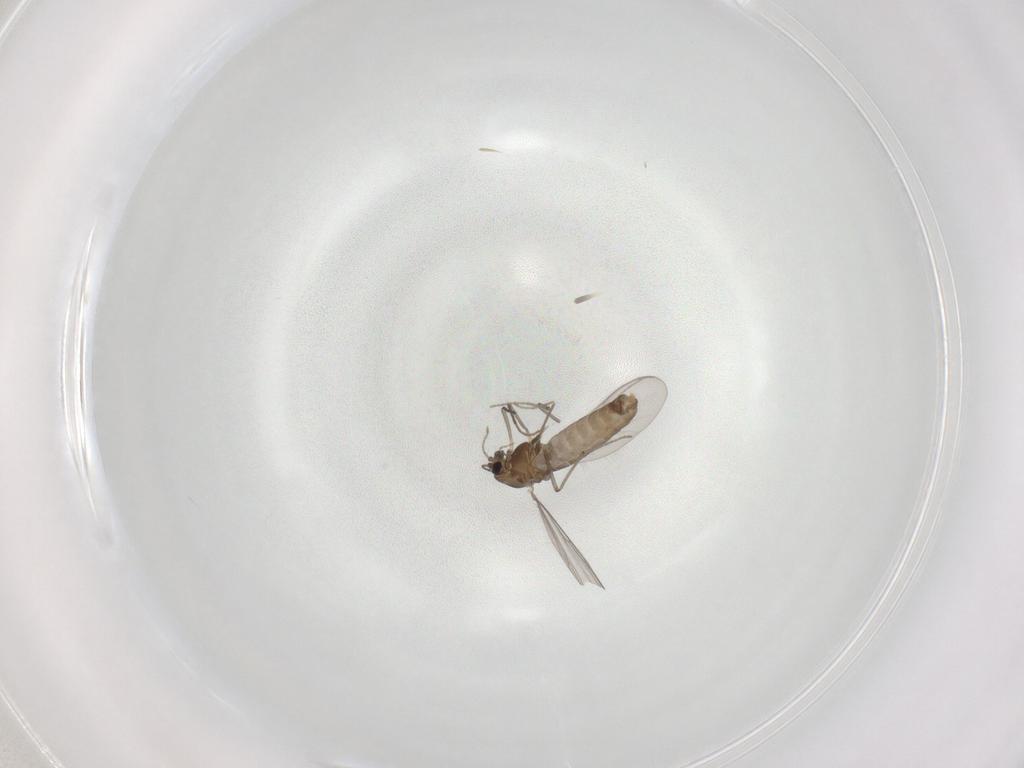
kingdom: Animalia
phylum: Arthropoda
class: Insecta
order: Diptera
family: Chironomidae
